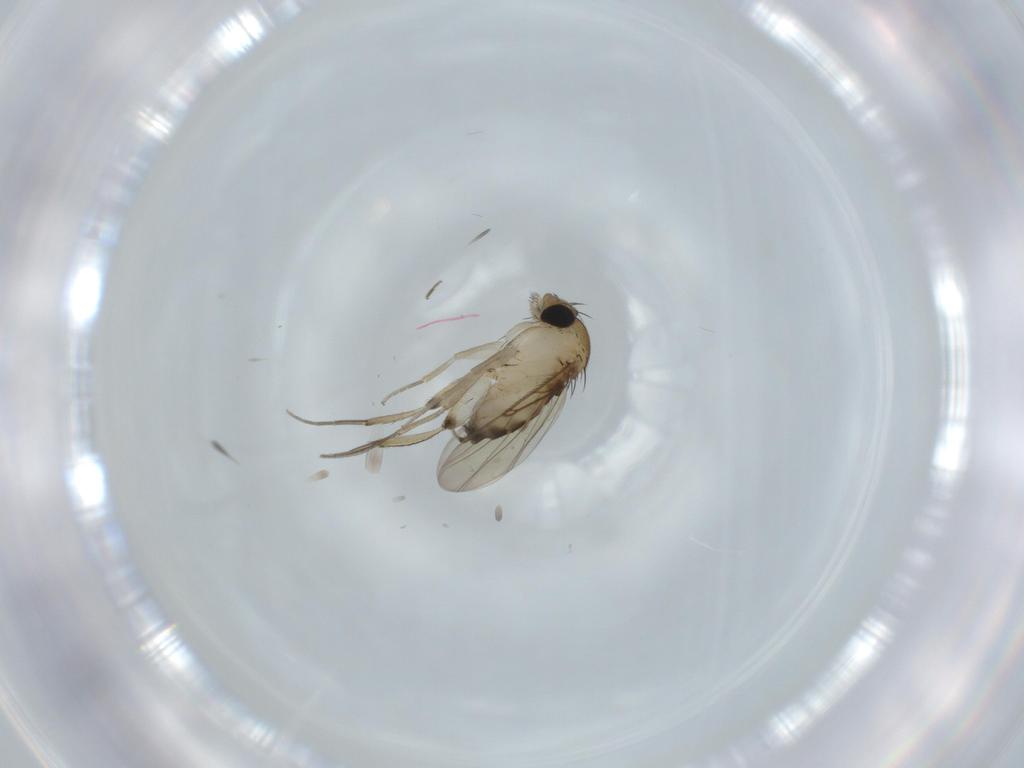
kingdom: Animalia
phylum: Arthropoda
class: Insecta
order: Diptera
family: Phoridae
